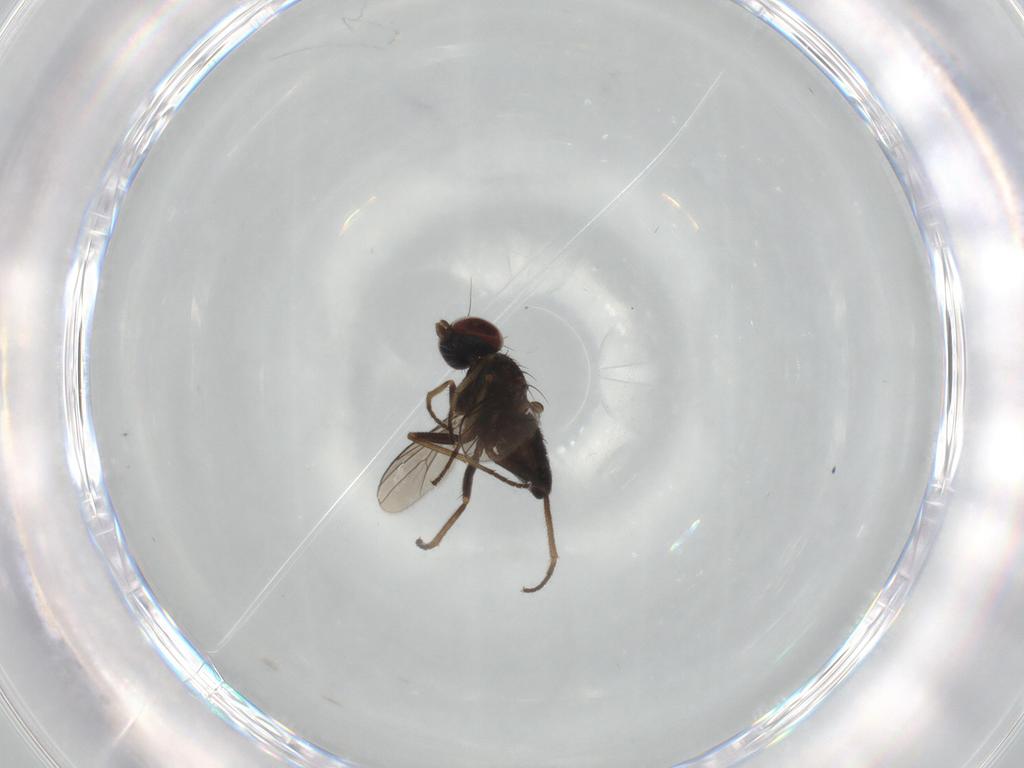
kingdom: Animalia
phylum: Arthropoda
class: Insecta
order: Diptera
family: Dolichopodidae
